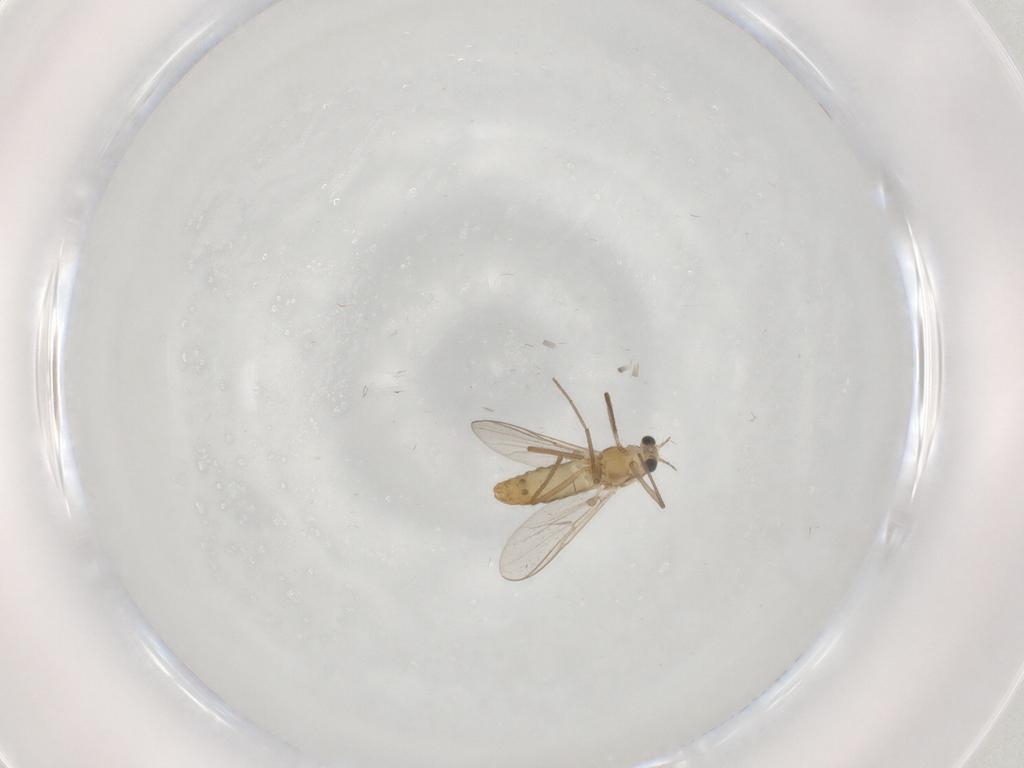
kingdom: Animalia
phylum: Arthropoda
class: Insecta
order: Diptera
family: Chironomidae
